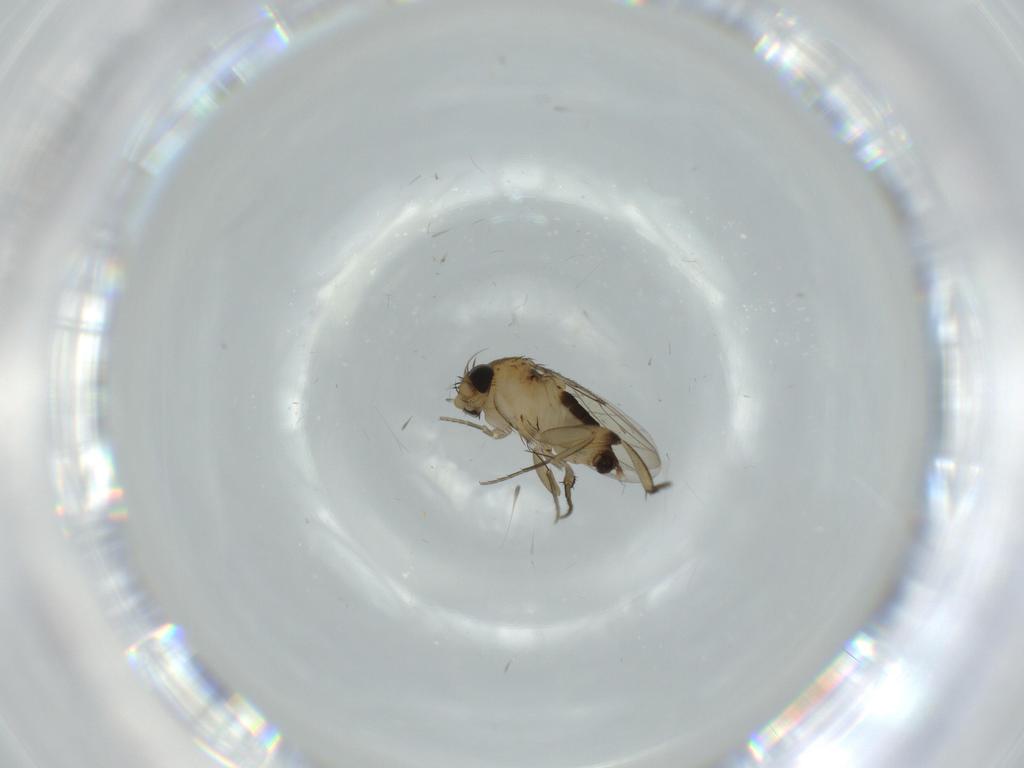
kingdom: Animalia
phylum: Arthropoda
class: Insecta
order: Diptera
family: Phoridae
